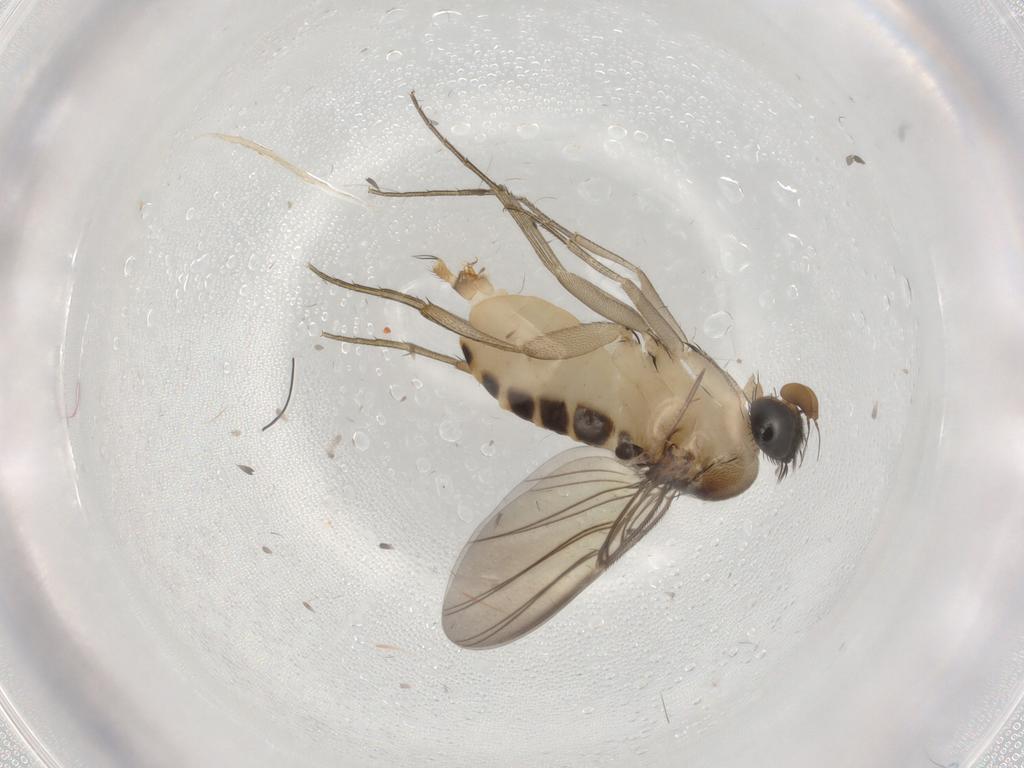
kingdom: Animalia
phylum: Arthropoda
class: Insecta
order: Diptera
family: Phoridae
